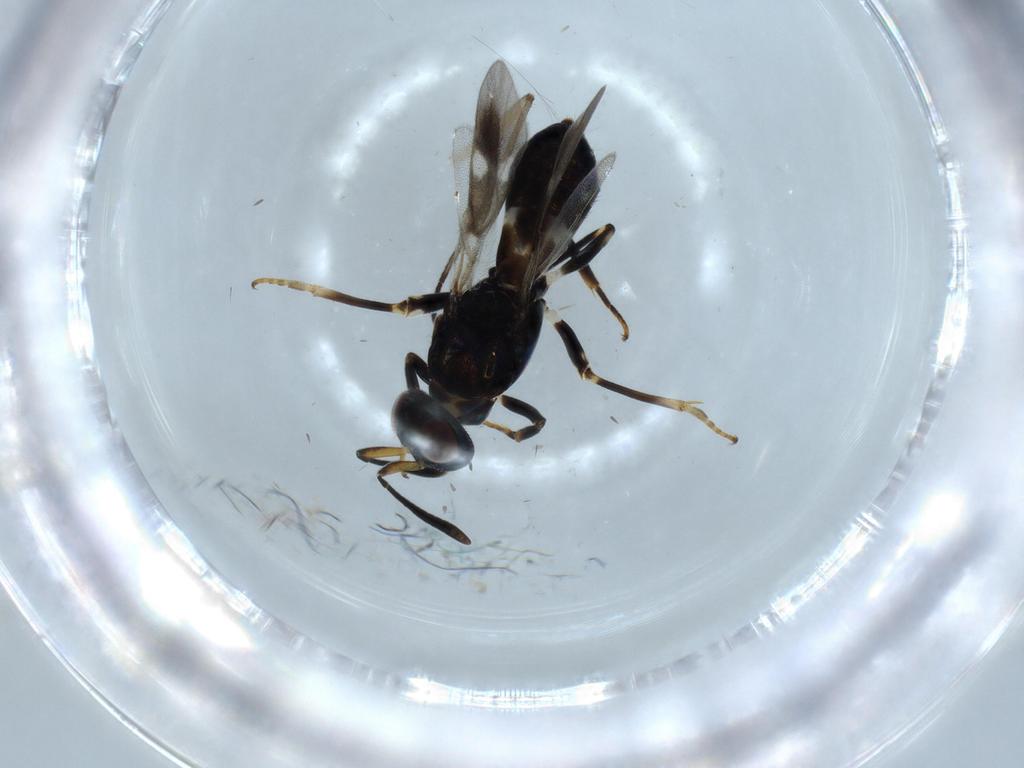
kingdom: Animalia
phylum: Arthropoda
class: Insecta
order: Hymenoptera
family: Eupelmidae
